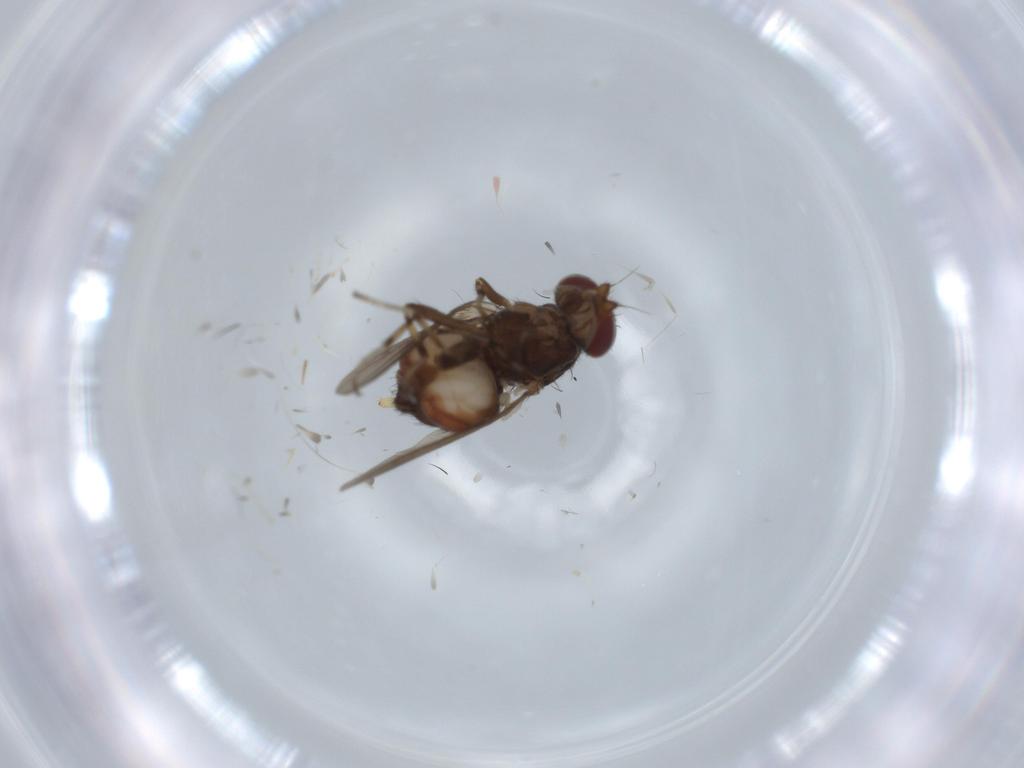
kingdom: Animalia
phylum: Arthropoda
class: Insecta
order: Diptera
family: Heleomyzidae
